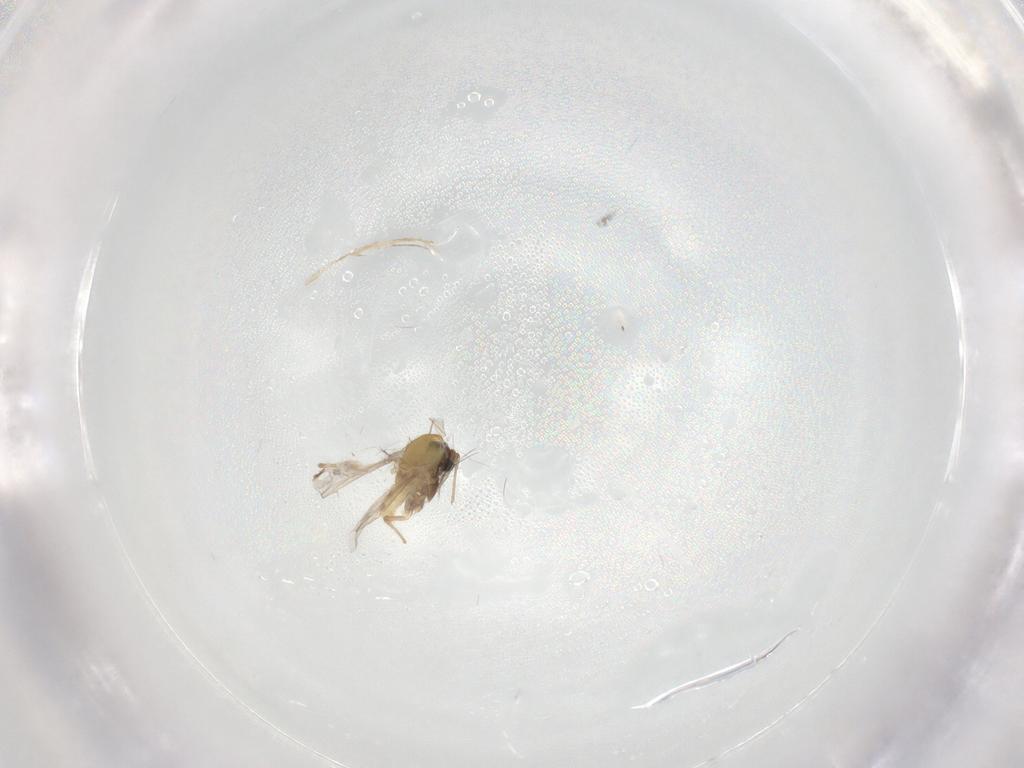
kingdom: Animalia
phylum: Arthropoda
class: Insecta
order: Diptera
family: Chironomidae
